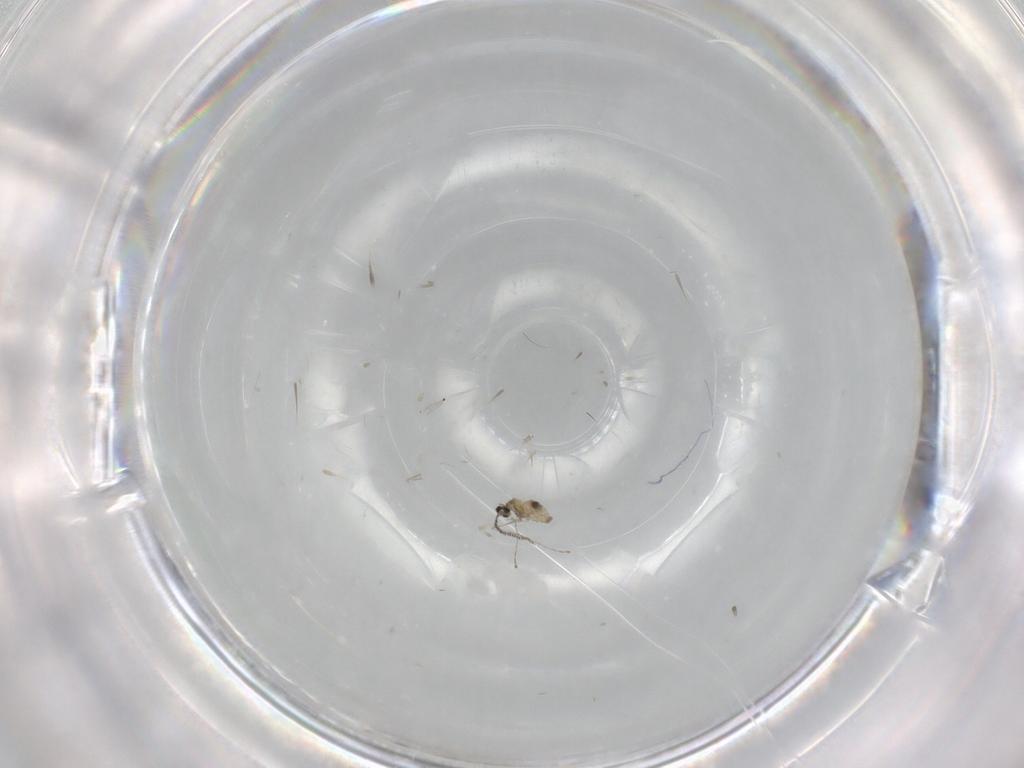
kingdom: Animalia
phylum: Arthropoda
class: Insecta
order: Diptera
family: Cecidomyiidae
